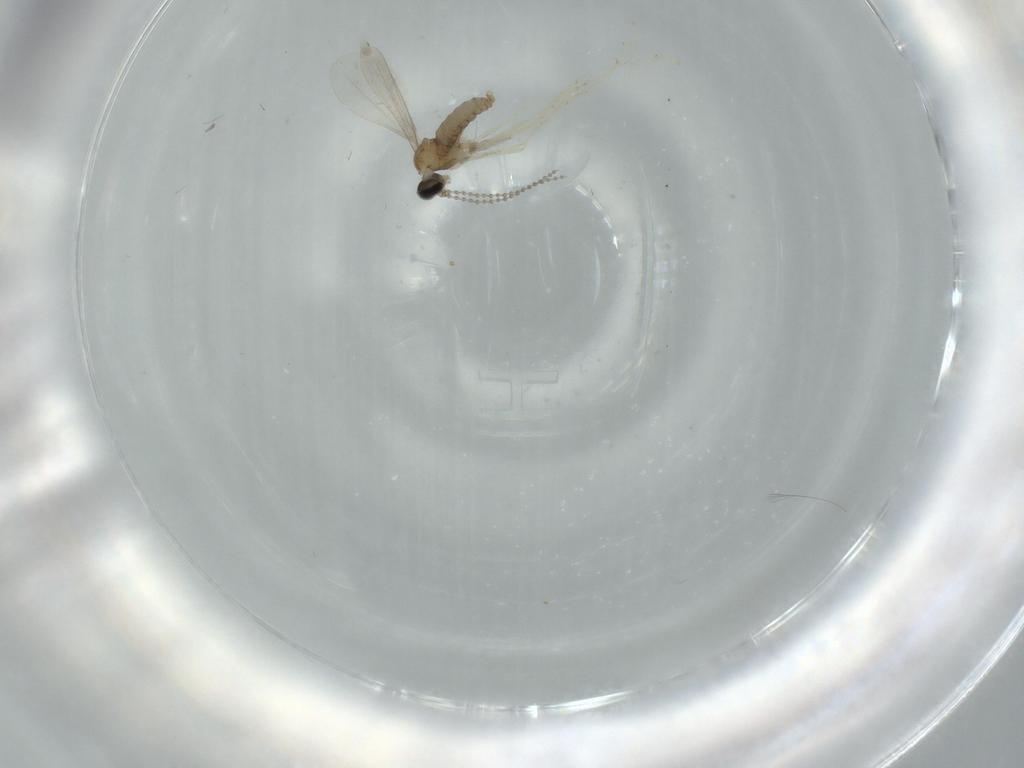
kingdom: Animalia
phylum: Arthropoda
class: Insecta
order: Diptera
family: Cecidomyiidae
